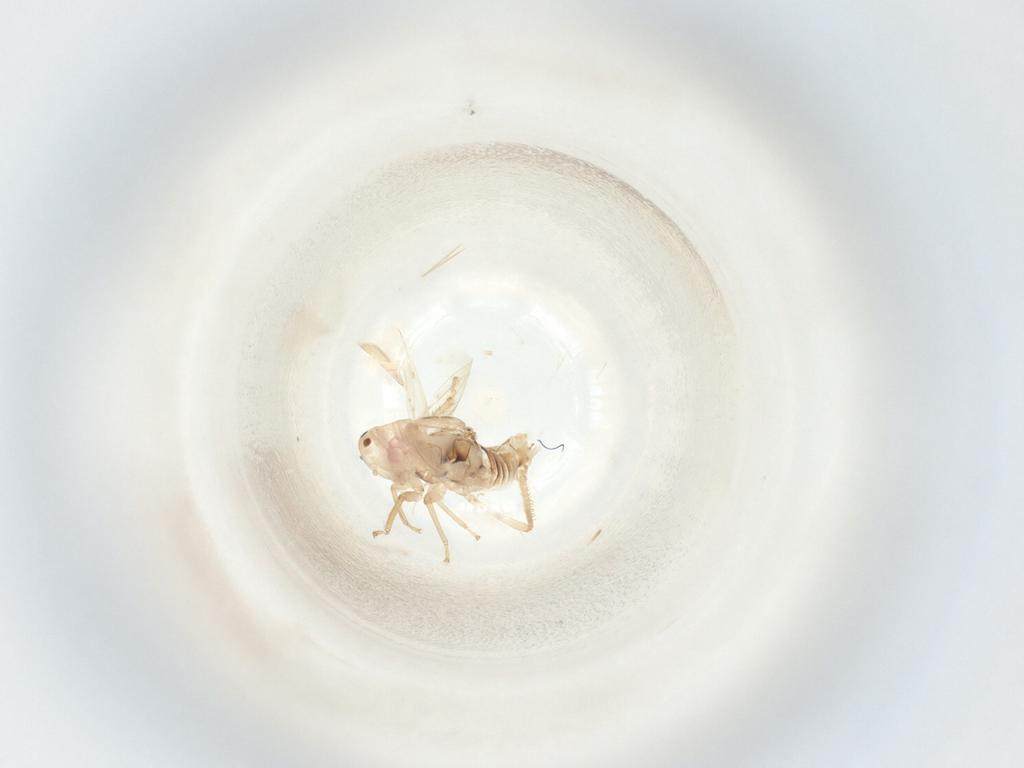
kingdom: Animalia
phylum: Arthropoda
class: Insecta
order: Hemiptera
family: Cicadellidae
